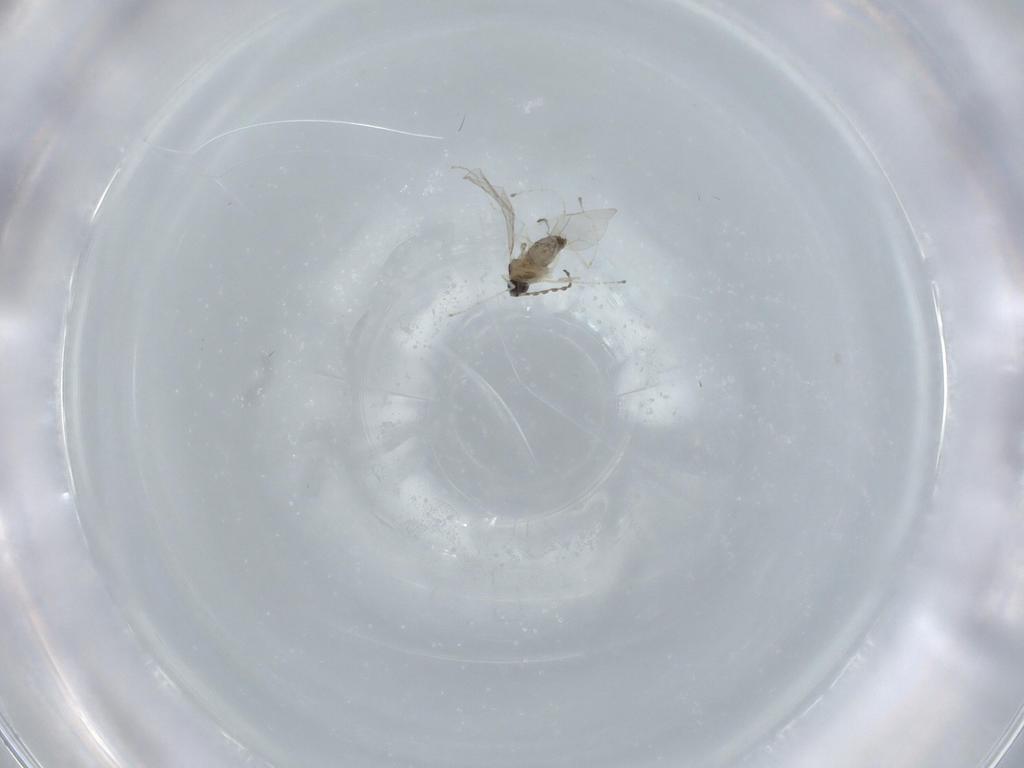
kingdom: Animalia
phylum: Arthropoda
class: Insecta
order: Diptera
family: Cecidomyiidae
